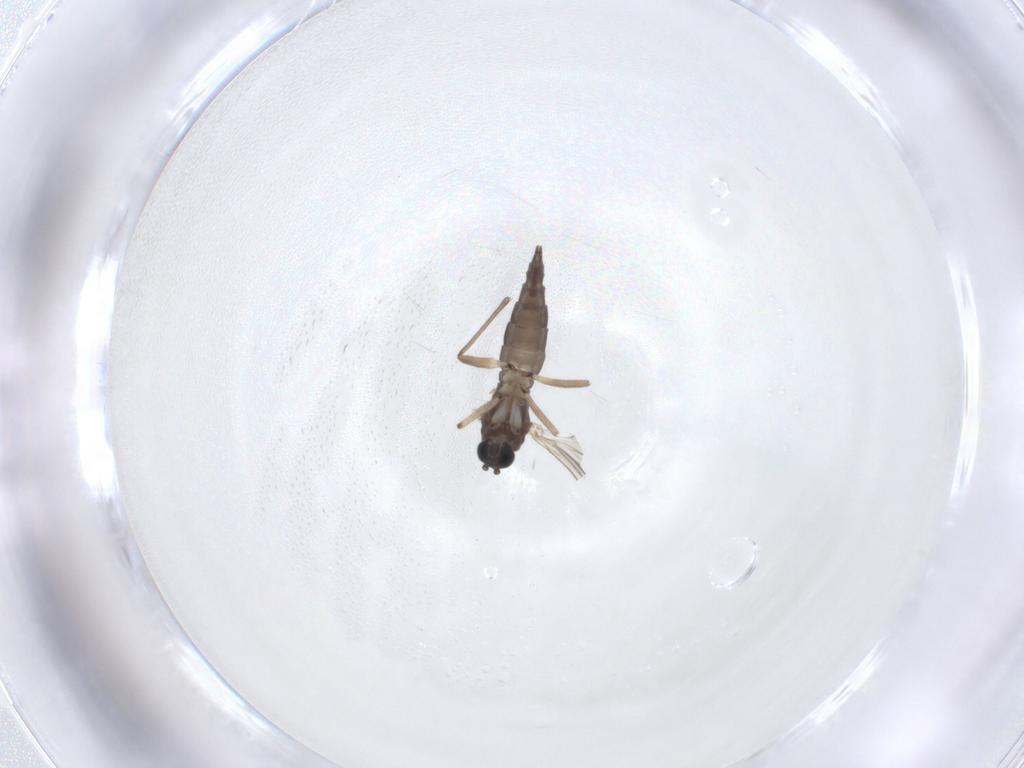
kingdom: Animalia
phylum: Arthropoda
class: Insecta
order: Diptera
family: Sciaridae
